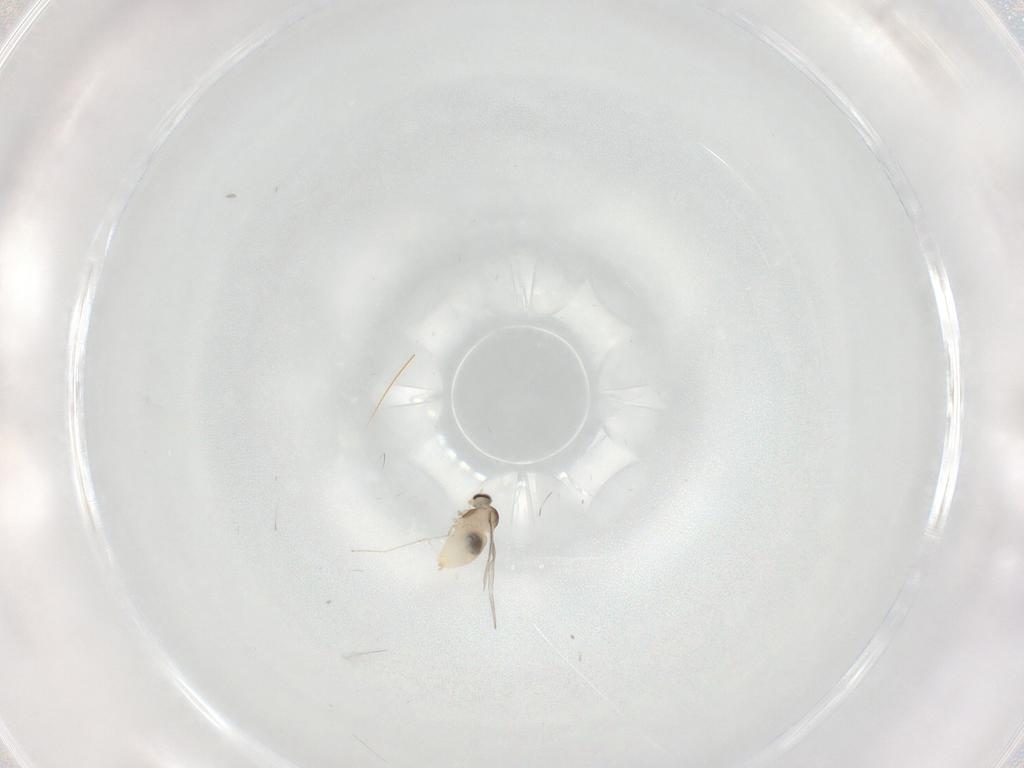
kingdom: Animalia
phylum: Arthropoda
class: Insecta
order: Diptera
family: Cecidomyiidae
